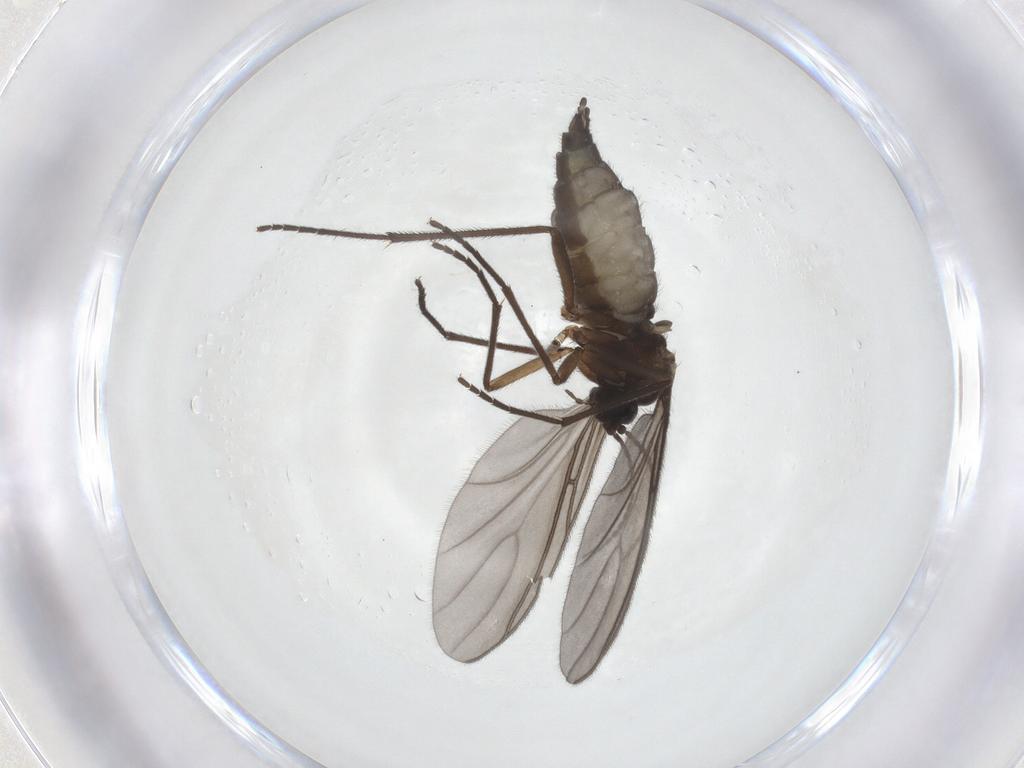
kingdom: Animalia
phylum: Arthropoda
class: Insecta
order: Diptera
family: Sciaridae
